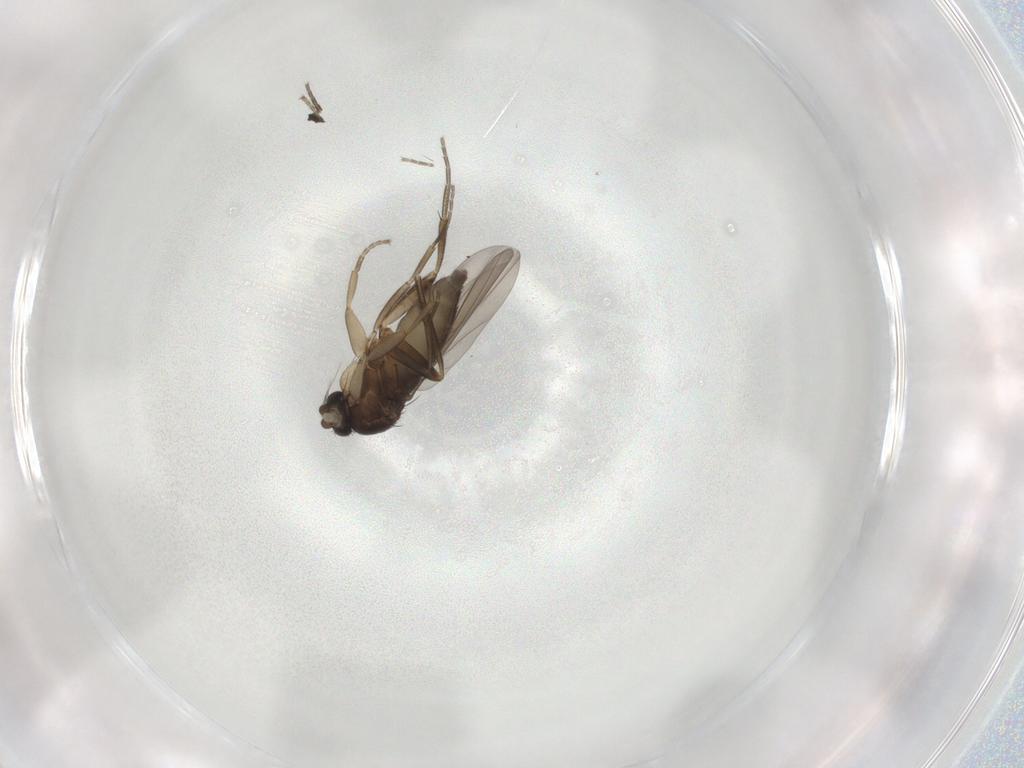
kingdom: Animalia
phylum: Arthropoda
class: Insecta
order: Diptera
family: Phoridae
